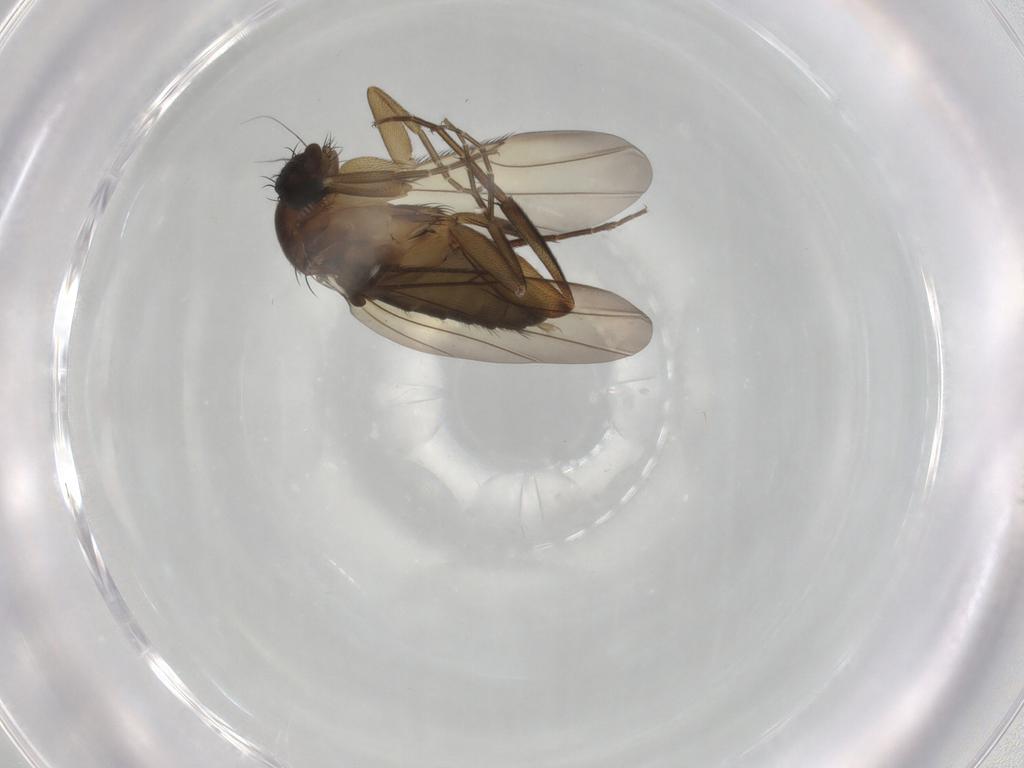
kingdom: Animalia
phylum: Arthropoda
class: Insecta
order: Diptera
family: Phoridae
